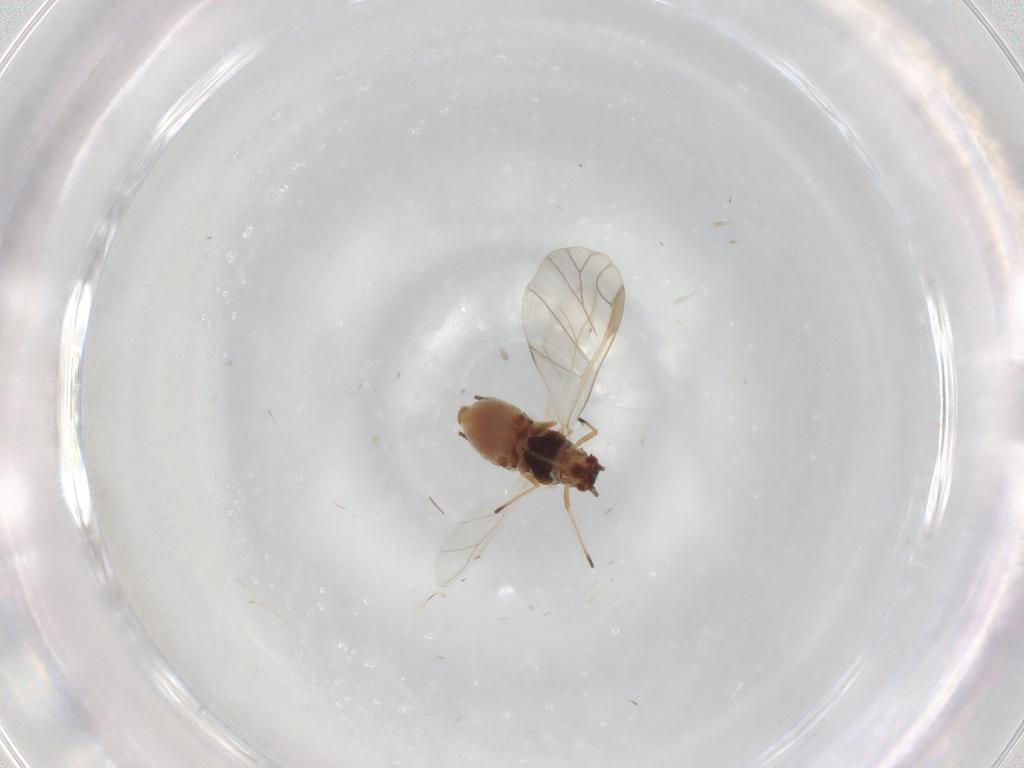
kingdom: Animalia
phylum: Arthropoda
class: Insecta
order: Hemiptera
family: Aphididae
